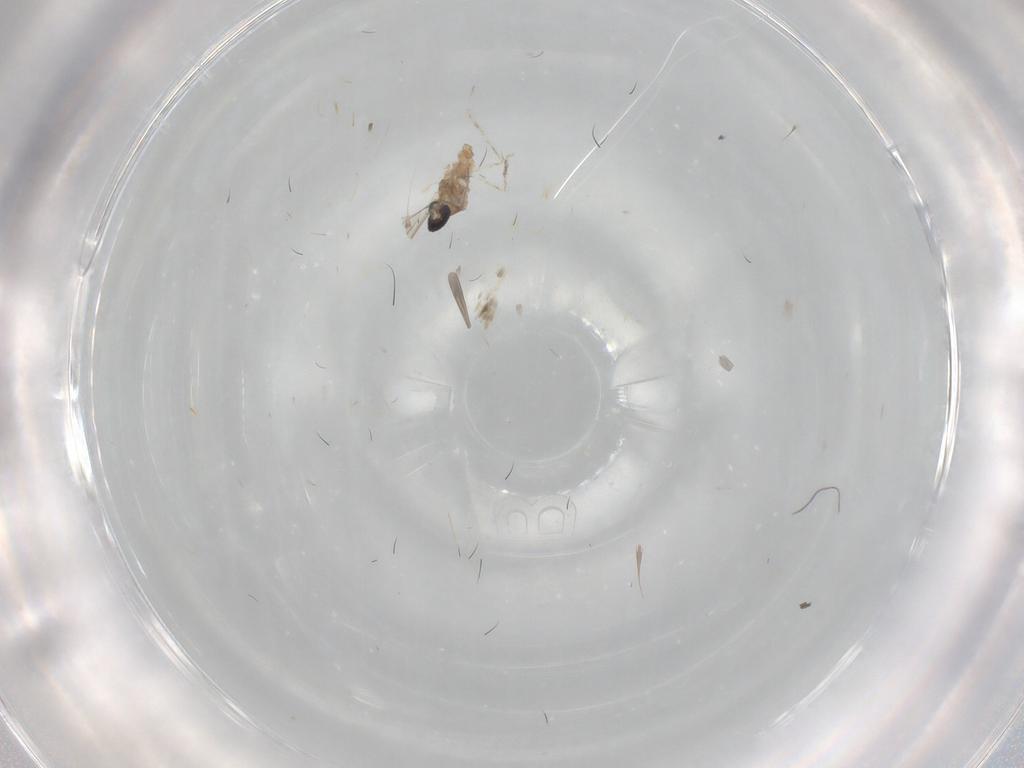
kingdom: Animalia
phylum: Arthropoda
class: Insecta
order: Diptera
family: Cecidomyiidae
